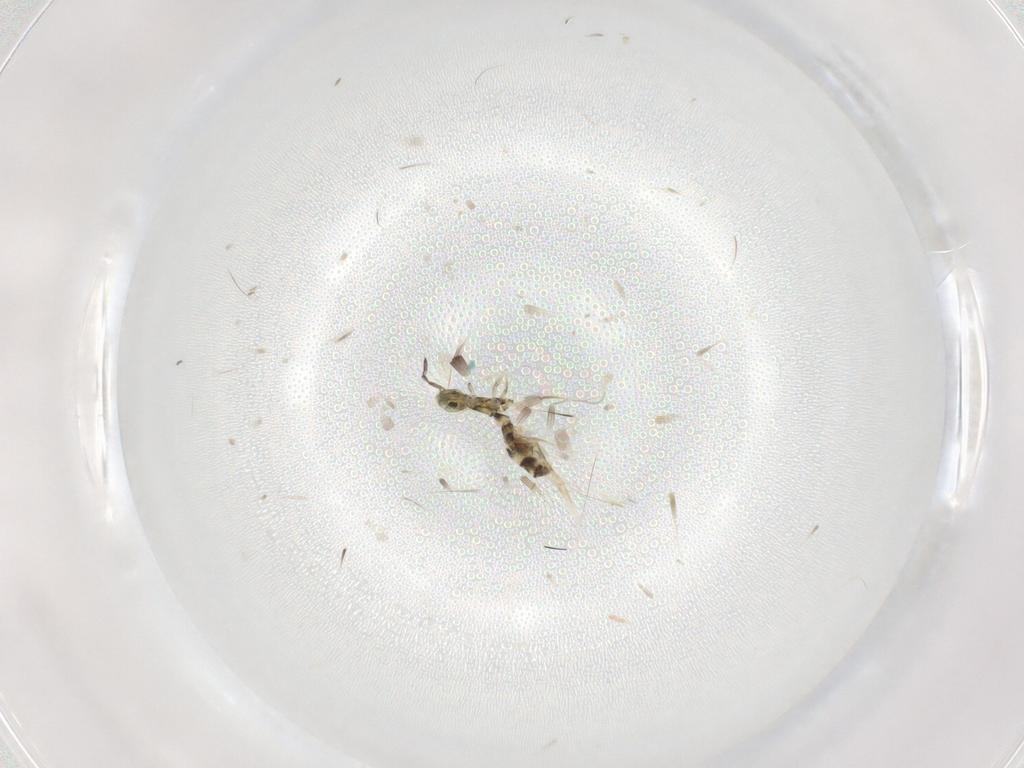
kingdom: Animalia
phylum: Arthropoda
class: Collembola
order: Entomobryomorpha
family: Isotomidae
